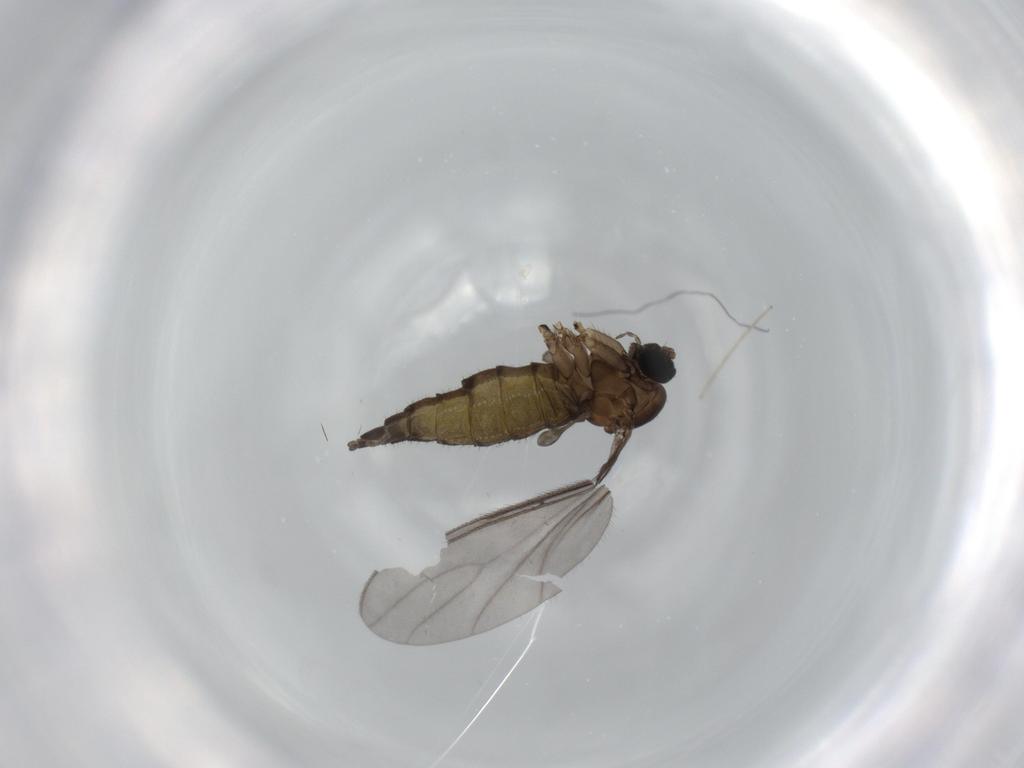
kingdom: Animalia
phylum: Arthropoda
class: Insecta
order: Diptera
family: Sciaridae
